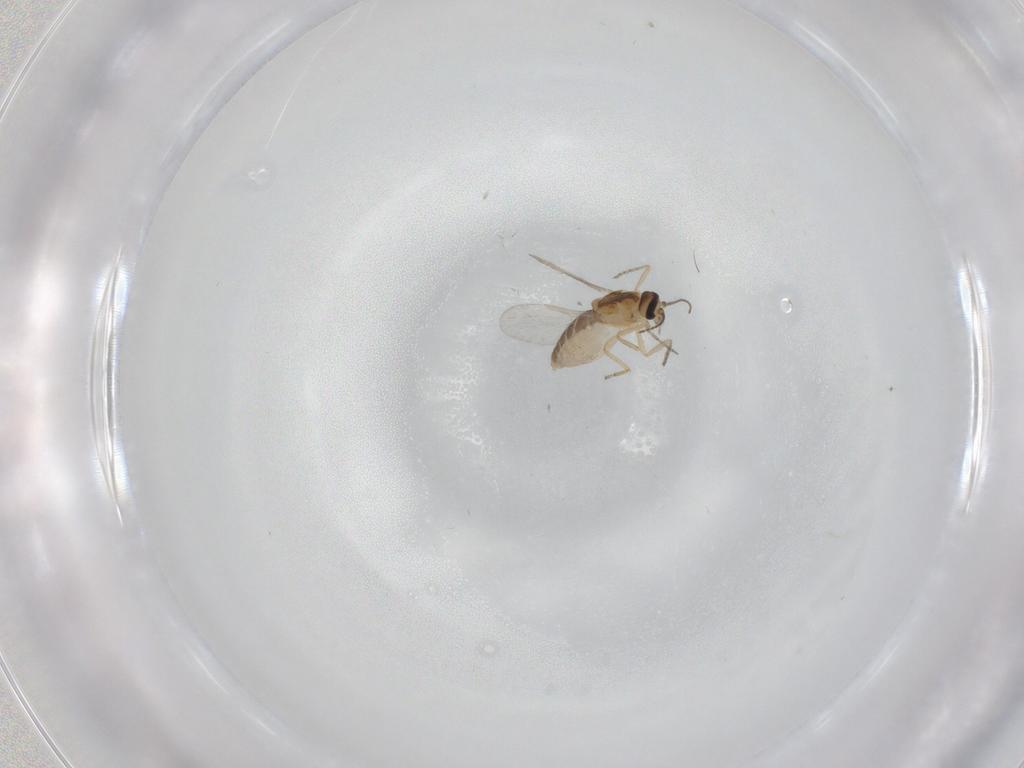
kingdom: Animalia
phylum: Arthropoda
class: Insecta
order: Diptera
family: Ceratopogonidae
